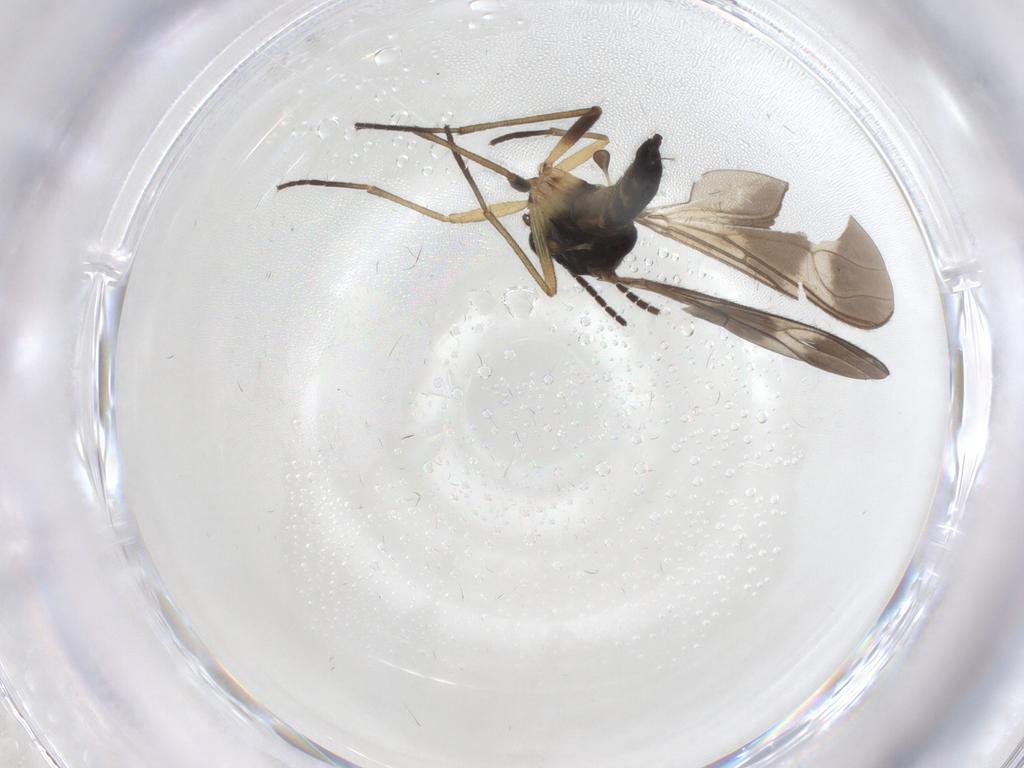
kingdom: Animalia
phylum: Arthropoda
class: Insecta
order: Diptera
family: Sciaridae
